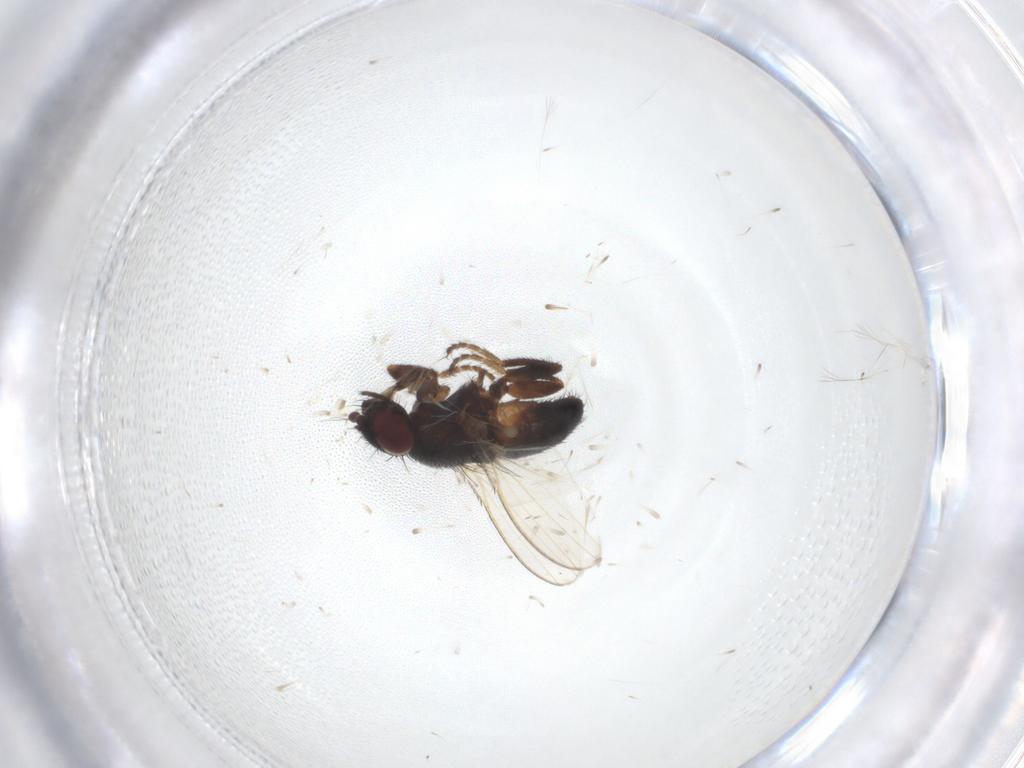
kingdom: Animalia
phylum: Arthropoda
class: Insecta
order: Diptera
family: Milichiidae
